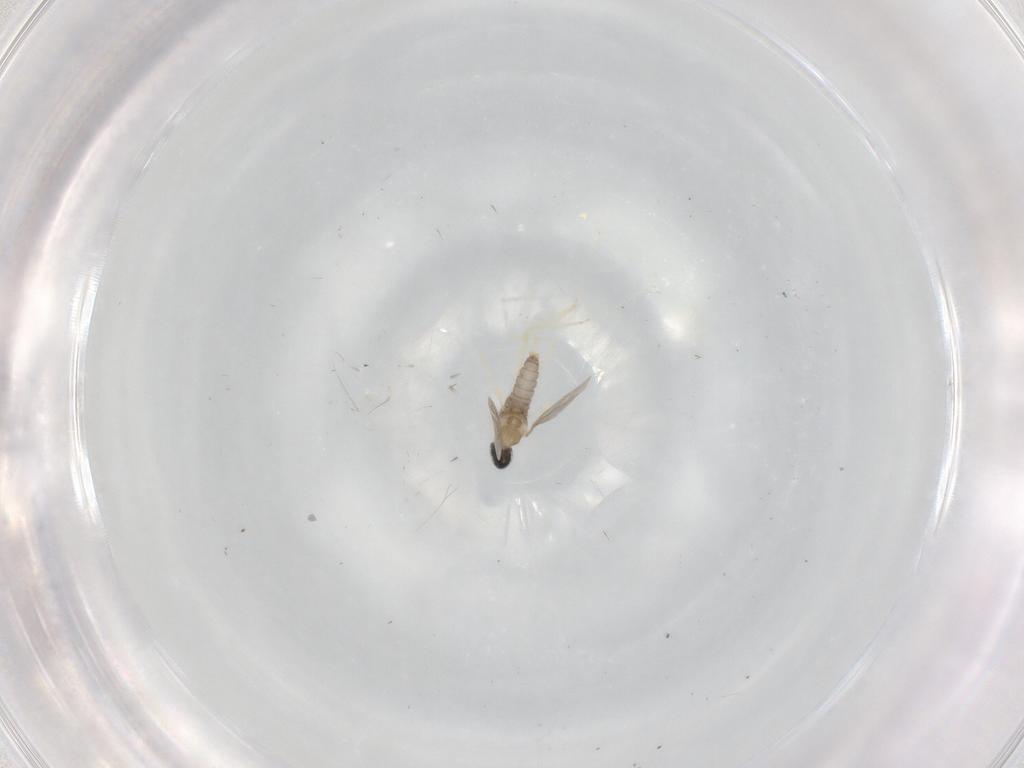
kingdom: Animalia
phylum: Arthropoda
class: Insecta
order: Diptera
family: Cecidomyiidae
